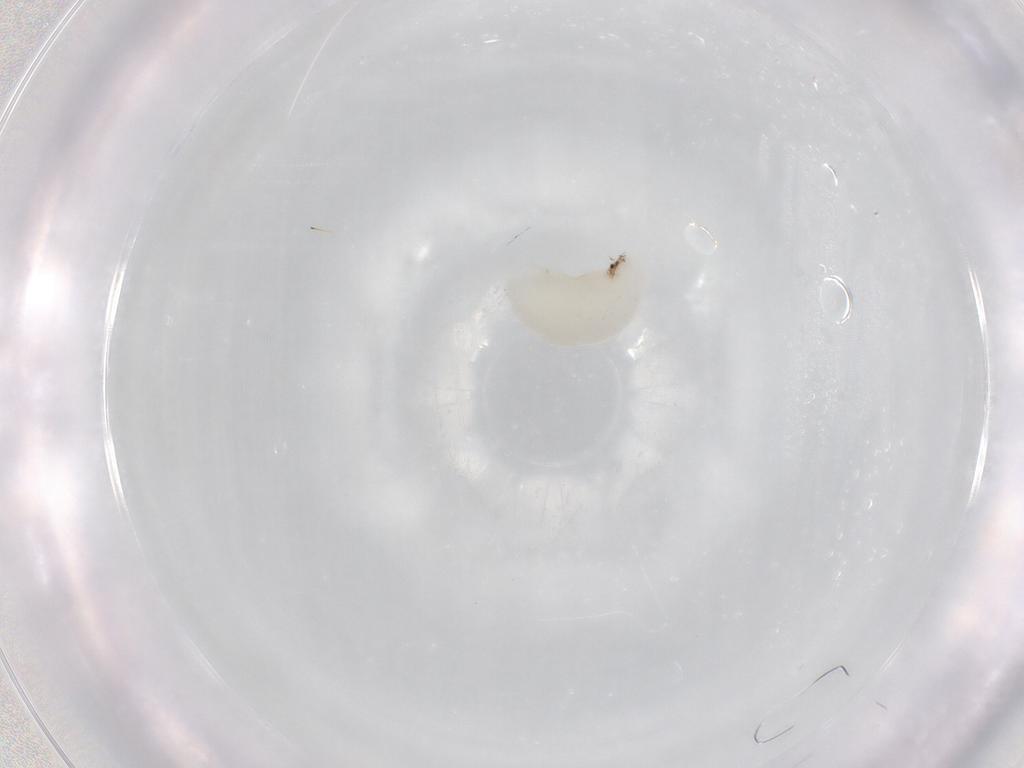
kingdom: Animalia
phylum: Arthropoda
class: Insecta
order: Hymenoptera
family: Eulophidae
